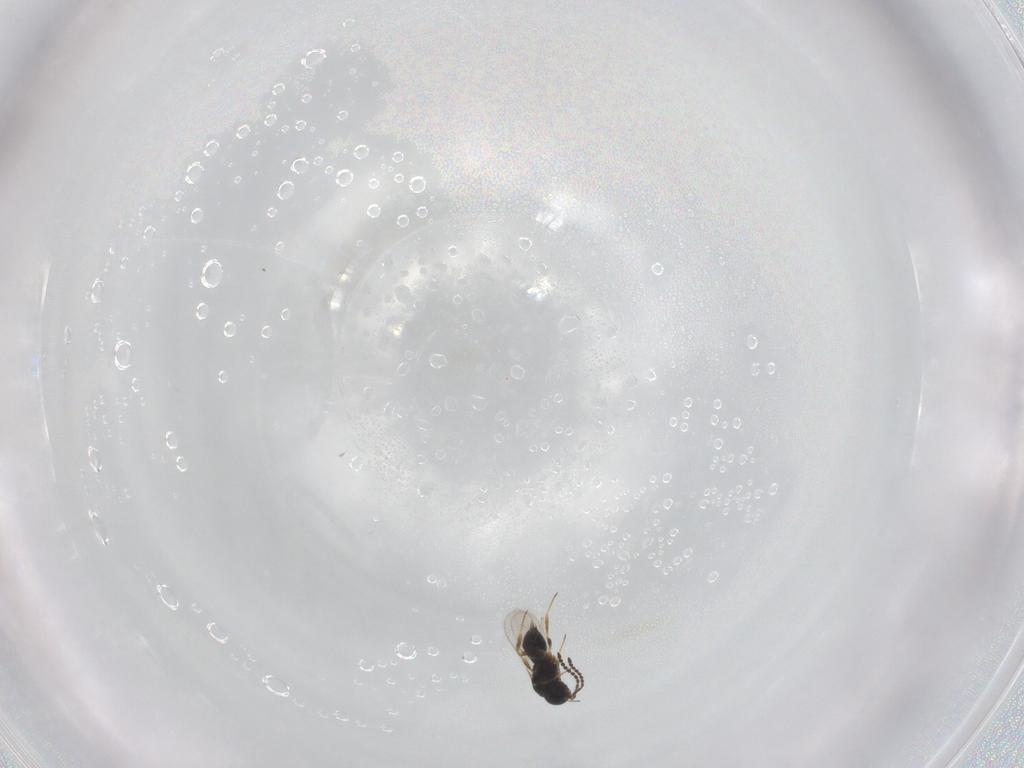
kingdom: Animalia
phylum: Arthropoda
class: Insecta
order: Hymenoptera
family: Scelionidae
